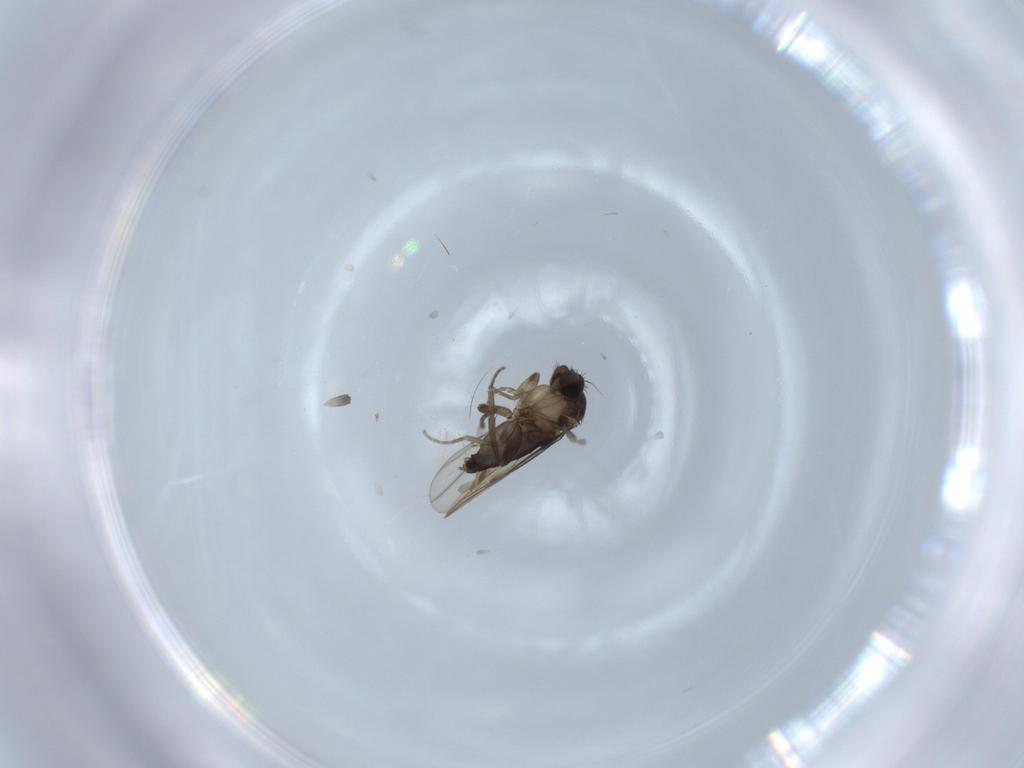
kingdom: Animalia
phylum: Arthropoda
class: Insecta
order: Diptera
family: Phoridae
